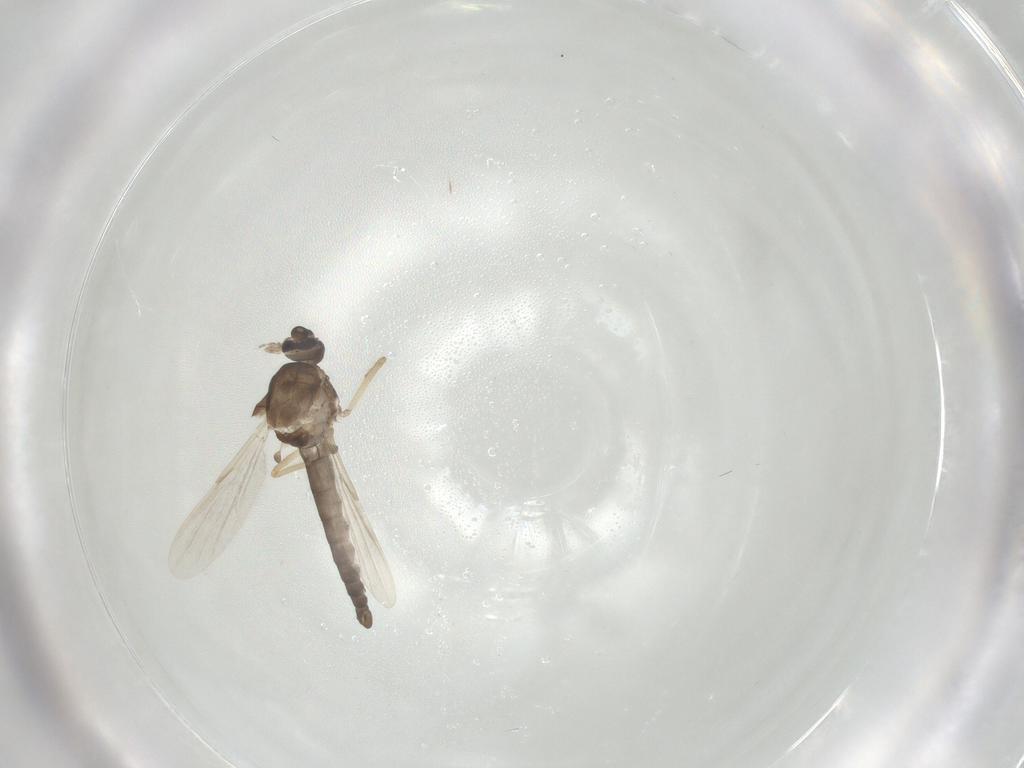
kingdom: Animalia
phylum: Arthropoda
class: Insecta
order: Diptera
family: Ceratopogonidae
